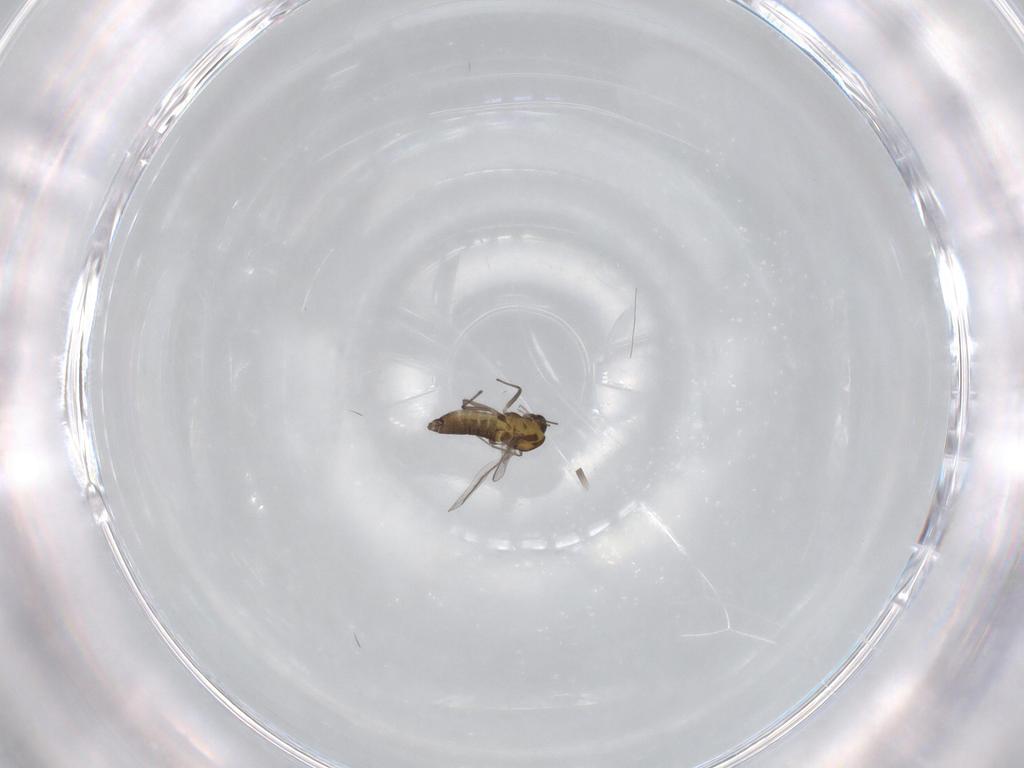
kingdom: Animalia
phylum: Arthropoda
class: Insecta
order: Diptera
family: Chironomidae
